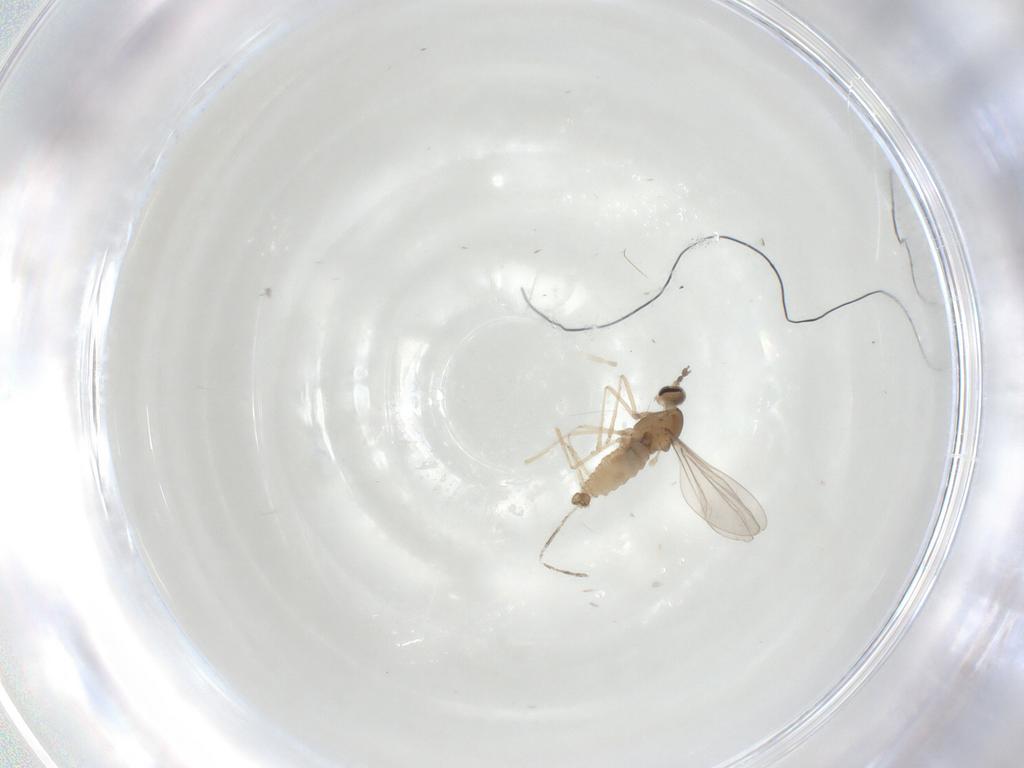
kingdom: Animalia
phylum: Arthropoda
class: Insecta
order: Diptera
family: Cecidomyiidae
